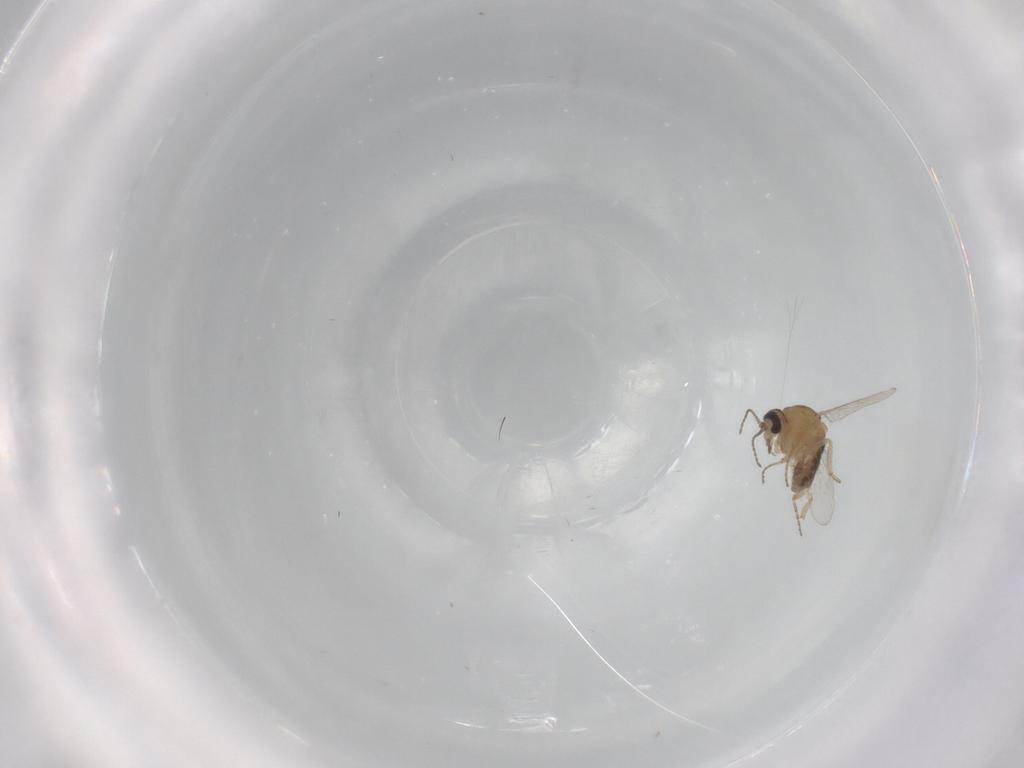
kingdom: Animalia
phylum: Arthropoda
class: Insecta
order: Diptera
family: Ceratopogonidae
